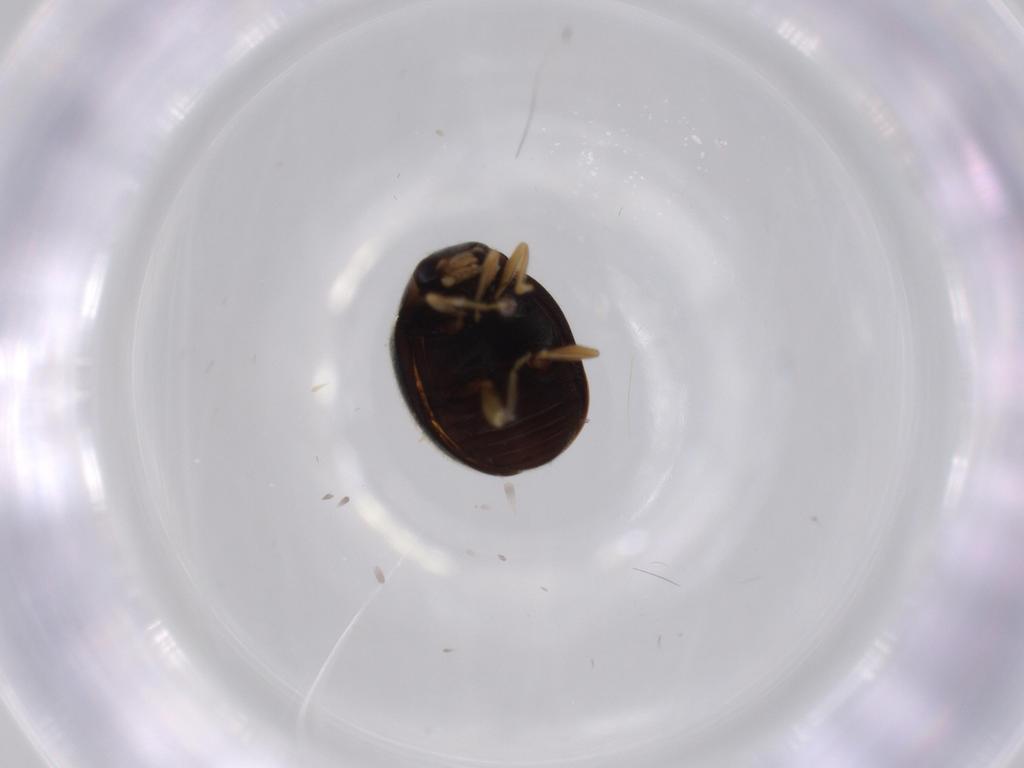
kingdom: Animalia
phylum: Arthropoda
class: Insecta
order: Coleoptera
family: Coccinellidae
